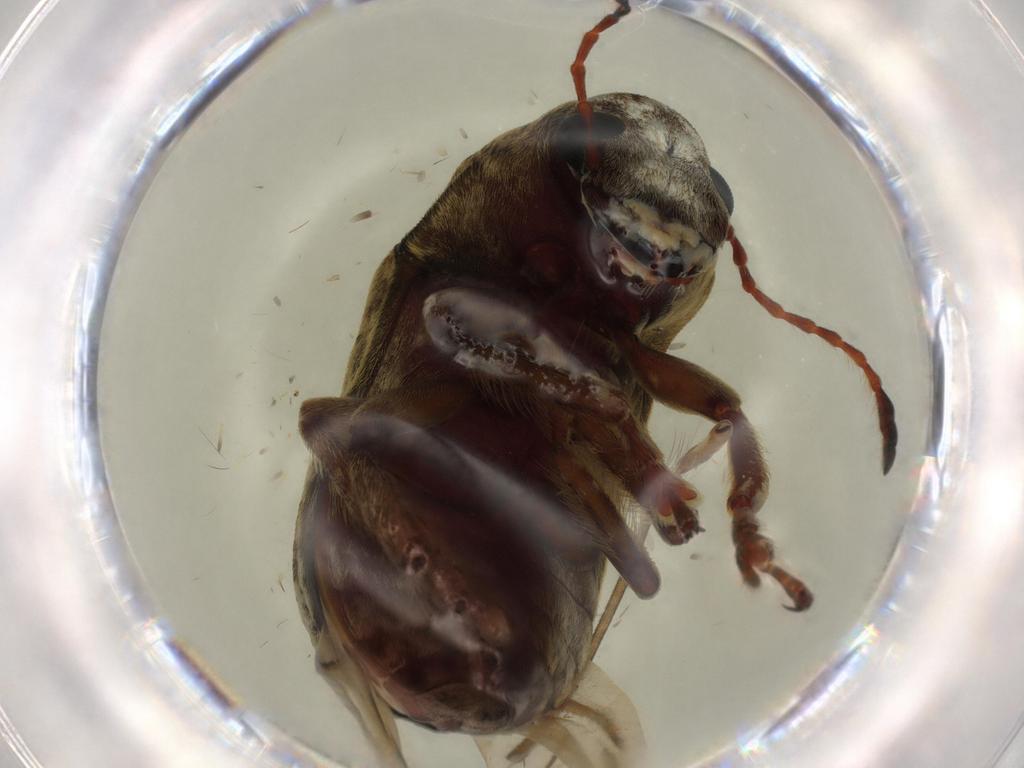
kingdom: Animalia
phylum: Arthropoda
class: Insecta
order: Coleoptera
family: Anthribidae
